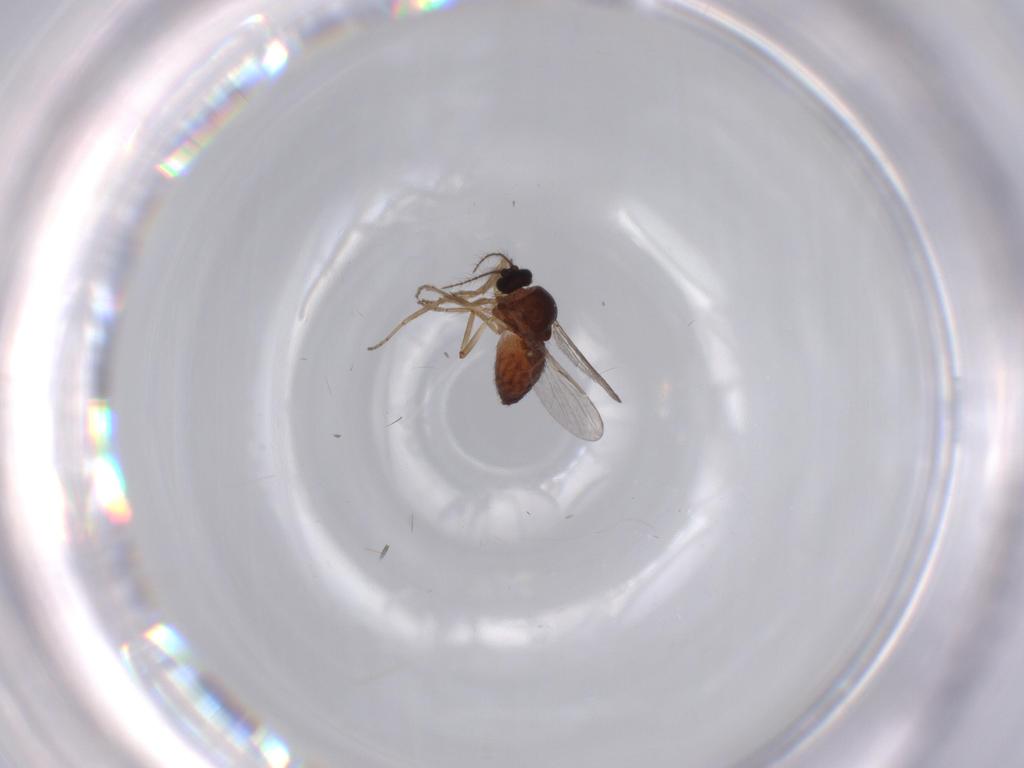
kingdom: Animalia
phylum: Arthropoda
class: Insecta
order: Diptera
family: Ceratopogonidae
